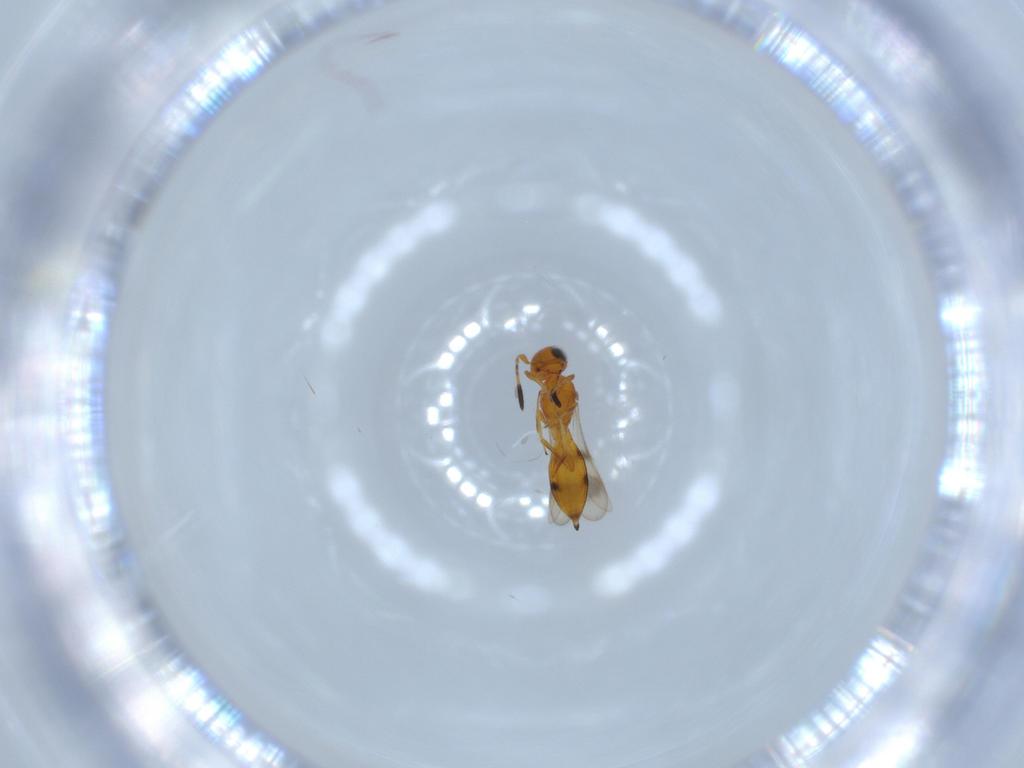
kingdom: Animalia
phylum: Arthropoda
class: Insecta
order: Hymenoptera
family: Scelionidae
